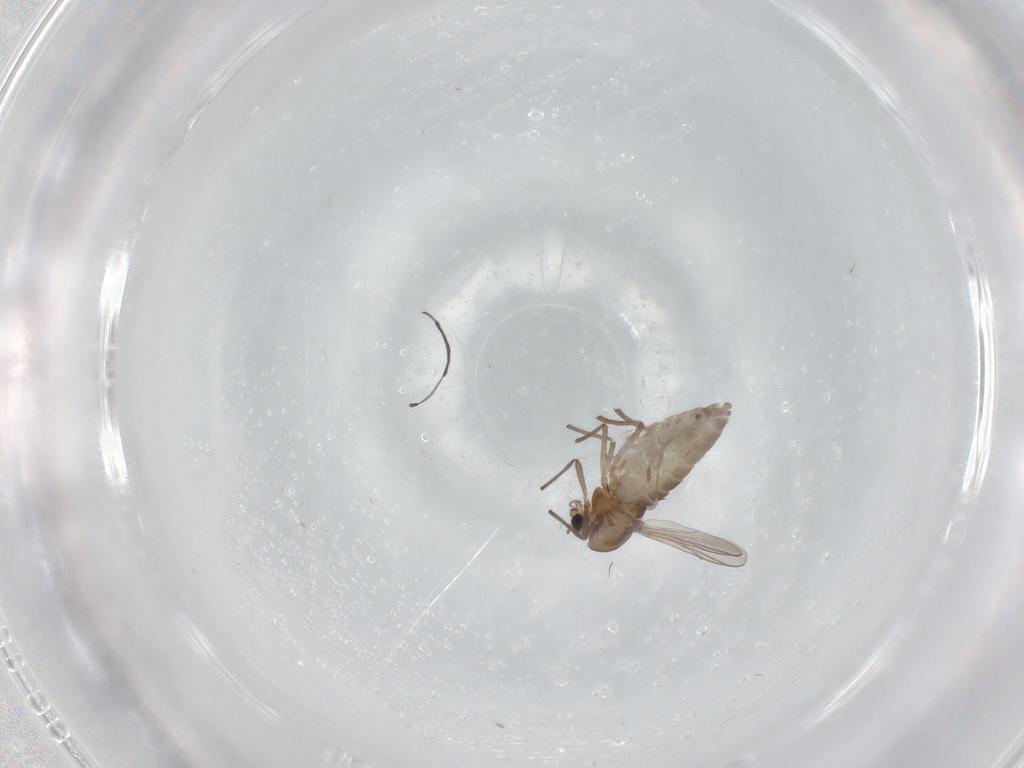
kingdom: Animalia
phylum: Arthropoda
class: Insecta
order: Diptera
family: Chironomidae
